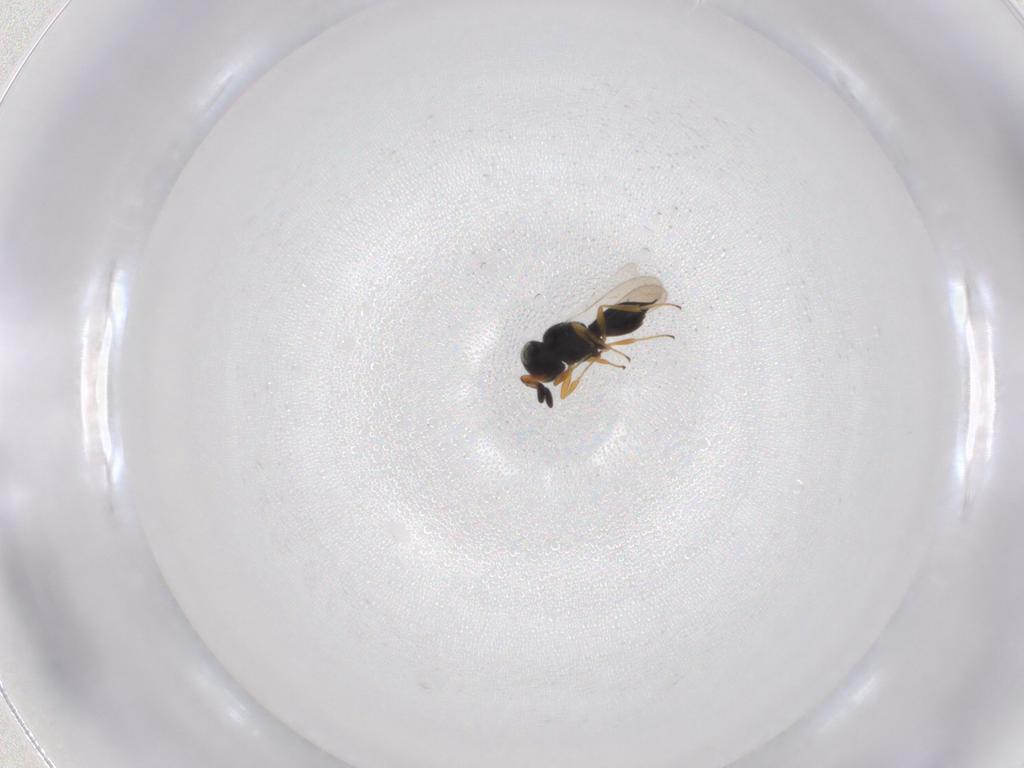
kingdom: Animalia
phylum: Arthropoda
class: Insecta
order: Hymenoptera
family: Scelionidae
